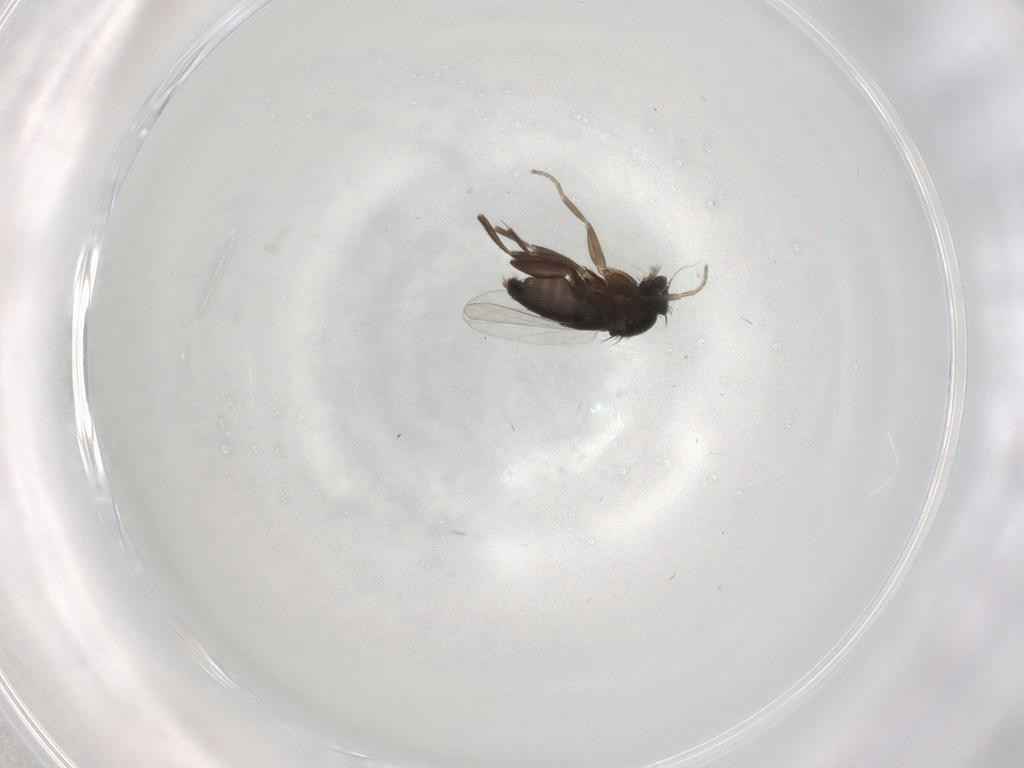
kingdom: Animalia
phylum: Arthropoda
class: Insecta
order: Diptera
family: Phoridae
